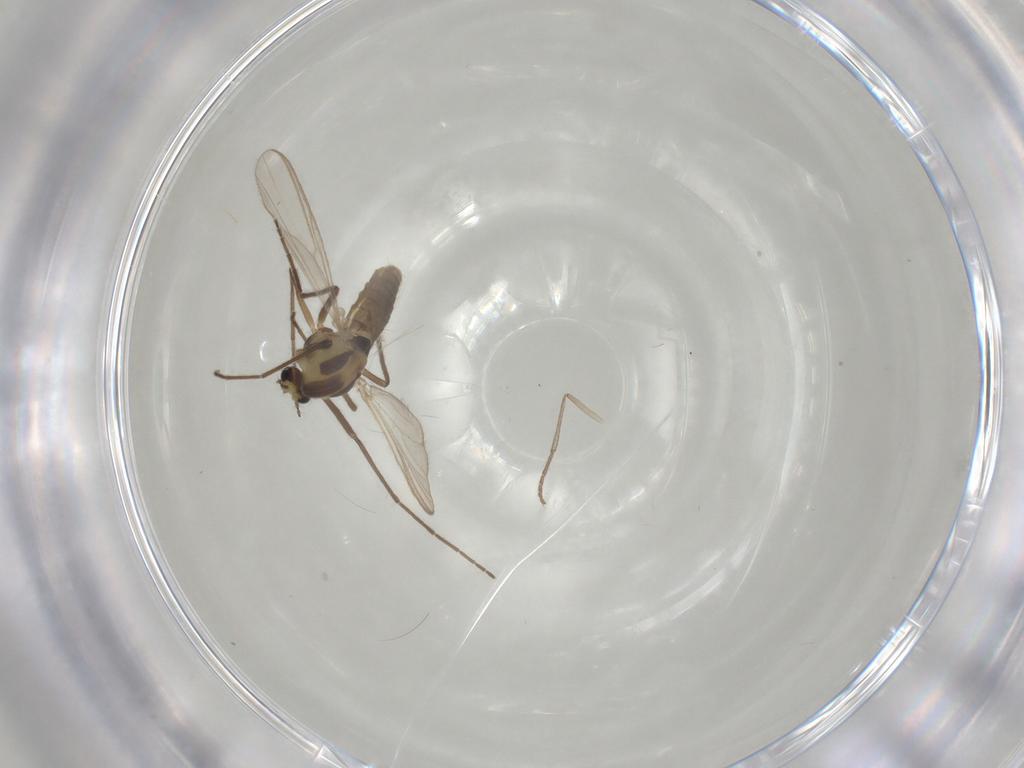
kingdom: Animalia
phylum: Arthropoda
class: Insecta
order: Diptera
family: Chironomidae
